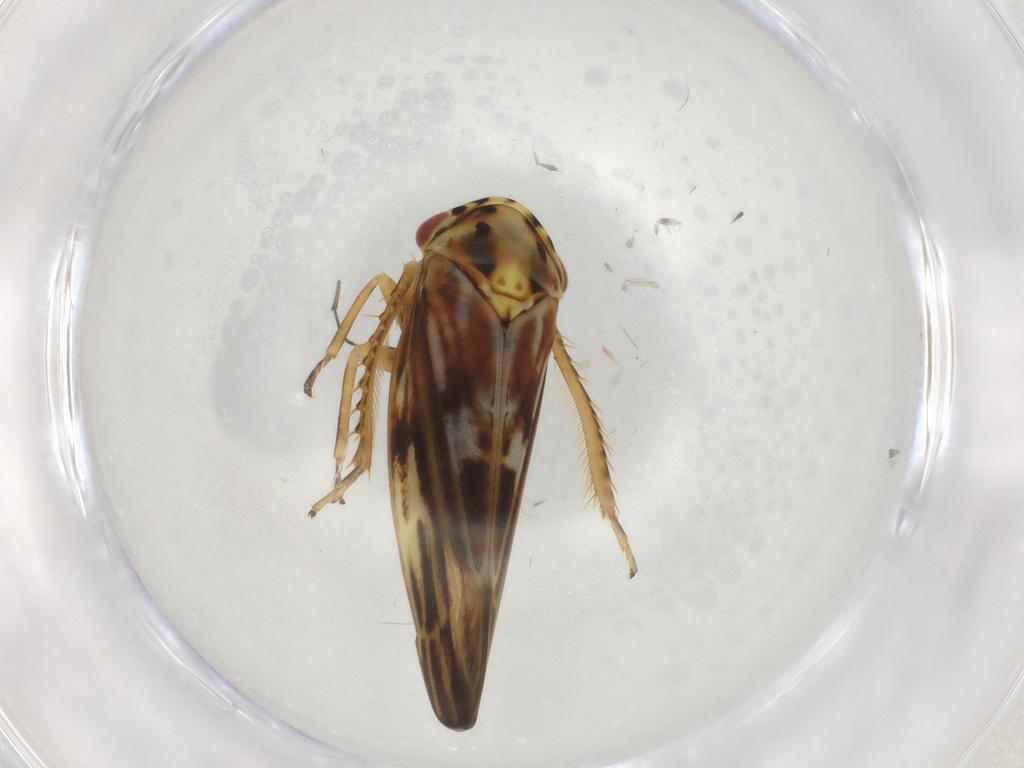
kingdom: Animalia
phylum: Arthropoda
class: Insecta
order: Hemiptera
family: Cicadellidae
